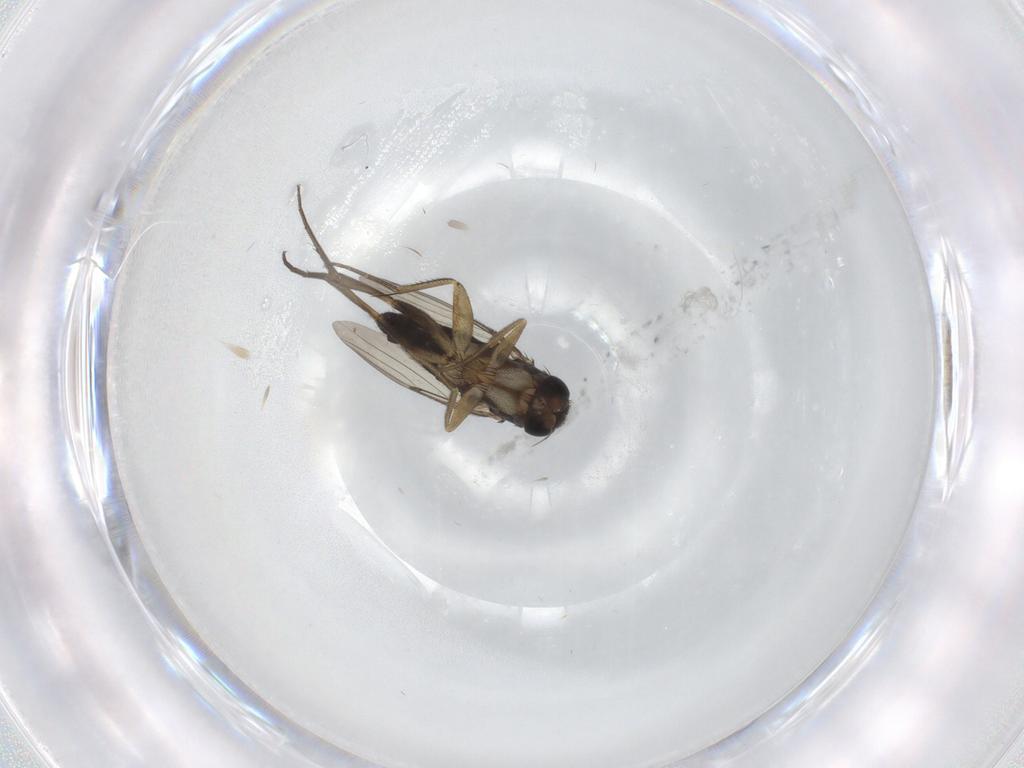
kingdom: Animalia
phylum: Arthropoda
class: Insecta
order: Diptera
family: Phoridae
